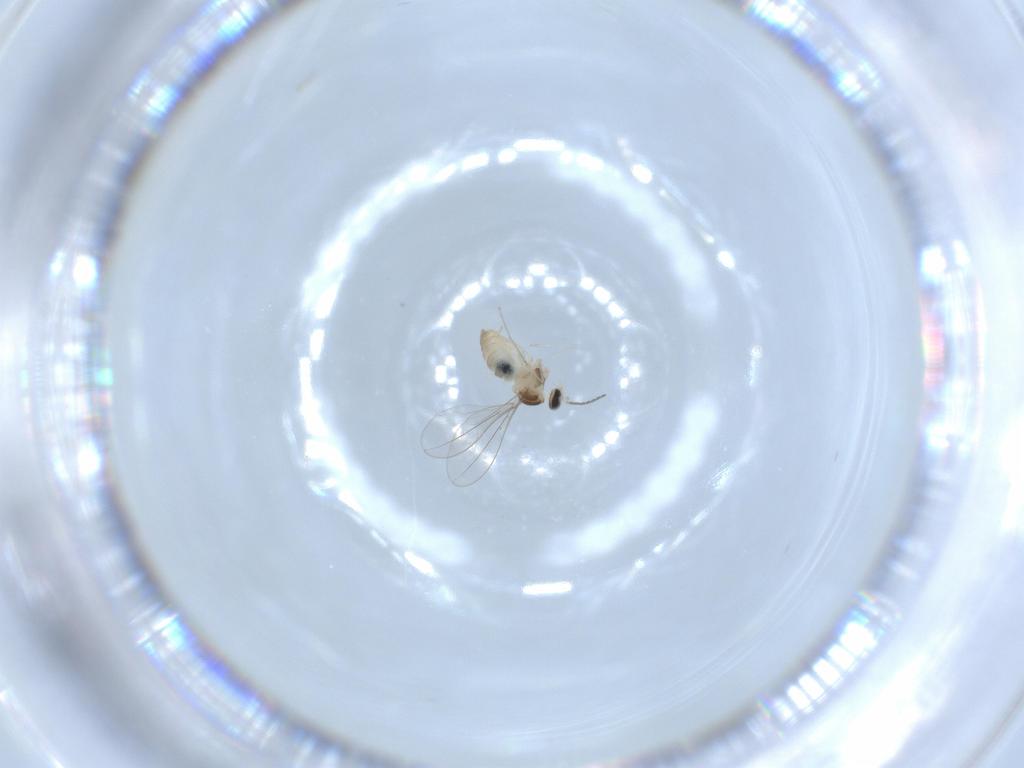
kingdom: Animalia
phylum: Arthropoda
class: Insecta
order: Diptera
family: Cecidomyiidae
